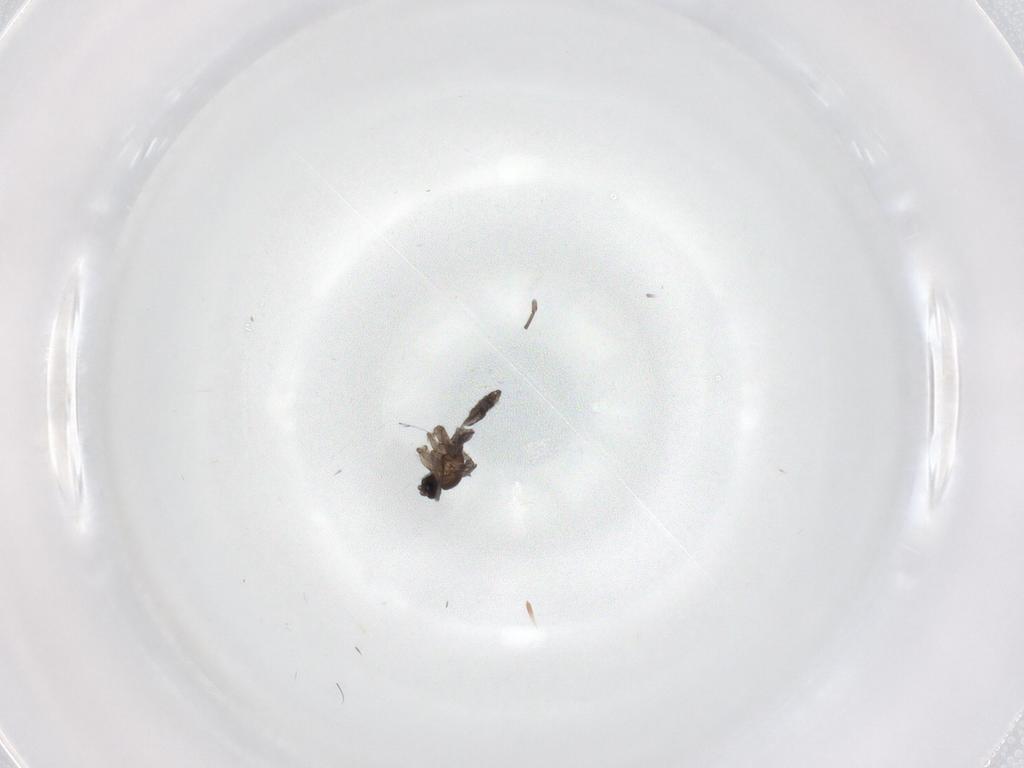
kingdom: Animalia
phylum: Arthropoda
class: Insecta
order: Diptera
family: Sciaridae
